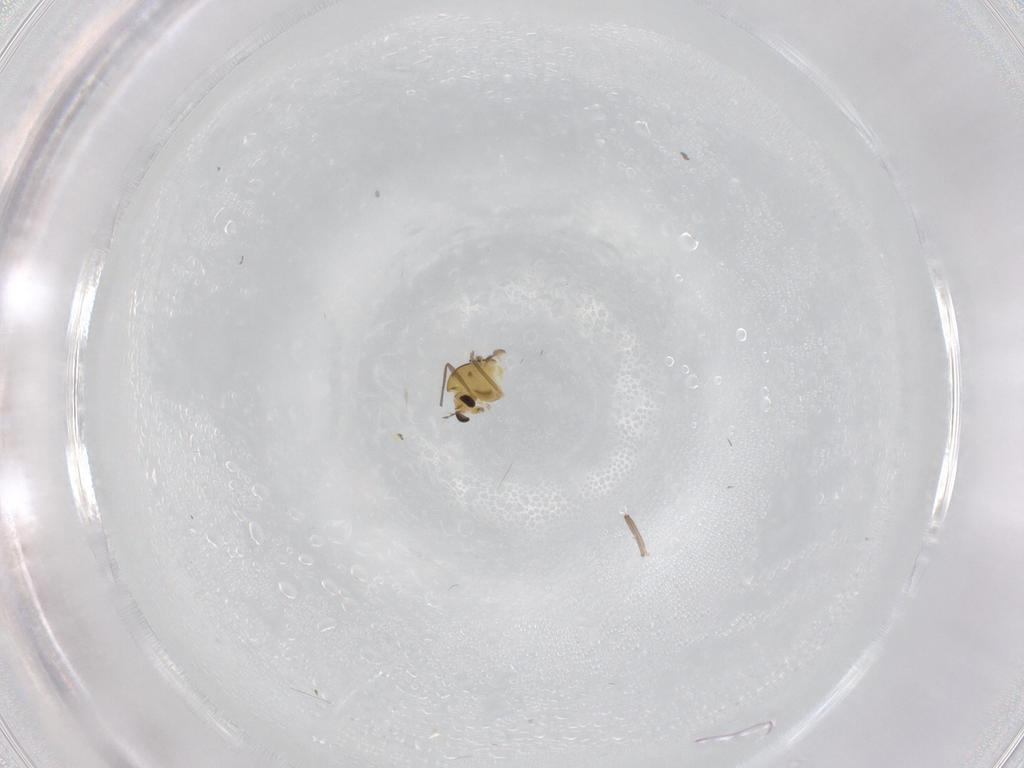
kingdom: Animalia
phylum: Arthropoda
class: Insecta
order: Diptera
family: Chironomidae
